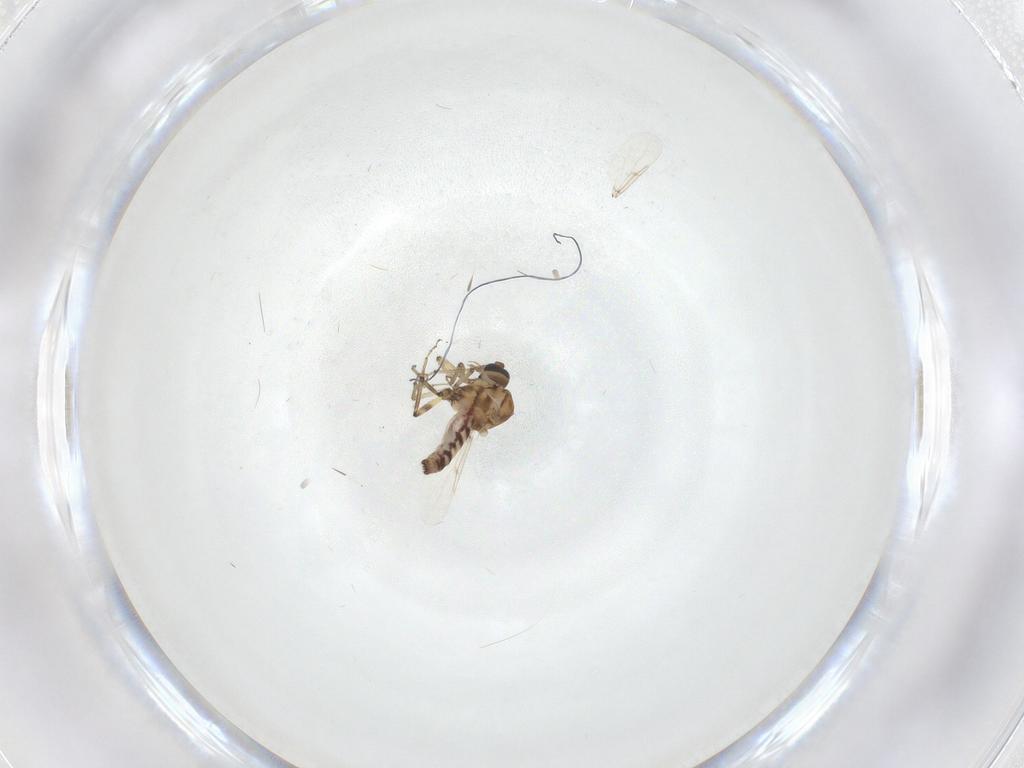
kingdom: Animalia
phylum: Arthropoda
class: Insecta
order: Diptera
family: Ceratopogonidae
